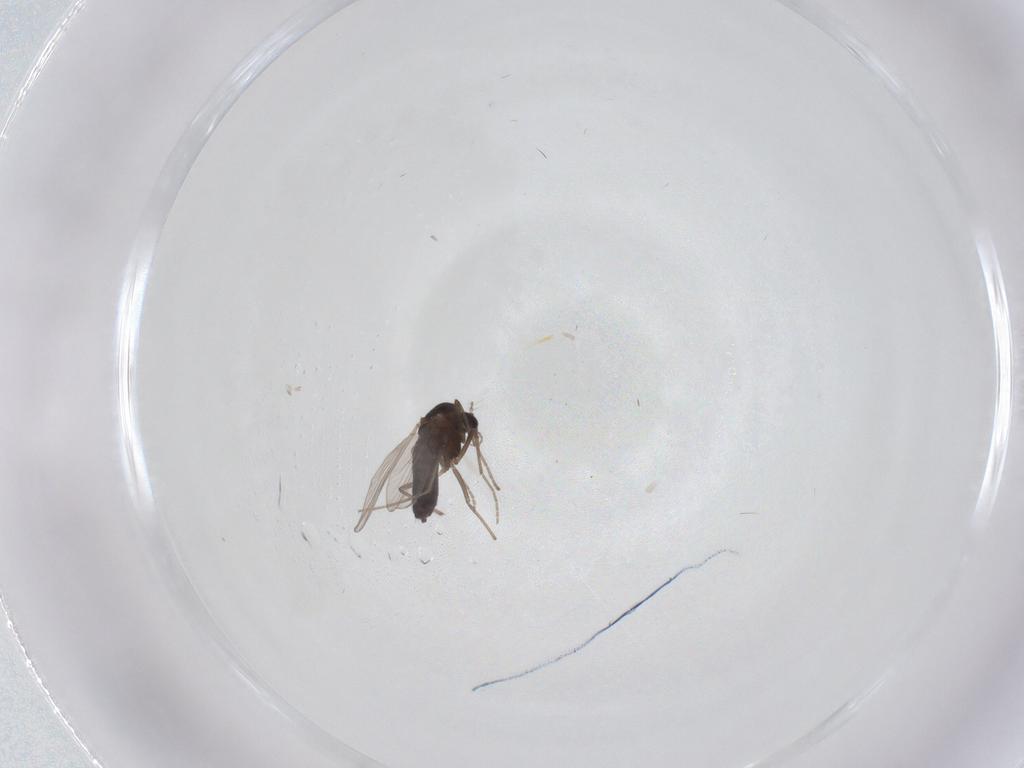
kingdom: Animalia
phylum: Arthropoda
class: Insecta
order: Diptera
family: Chironomidae
